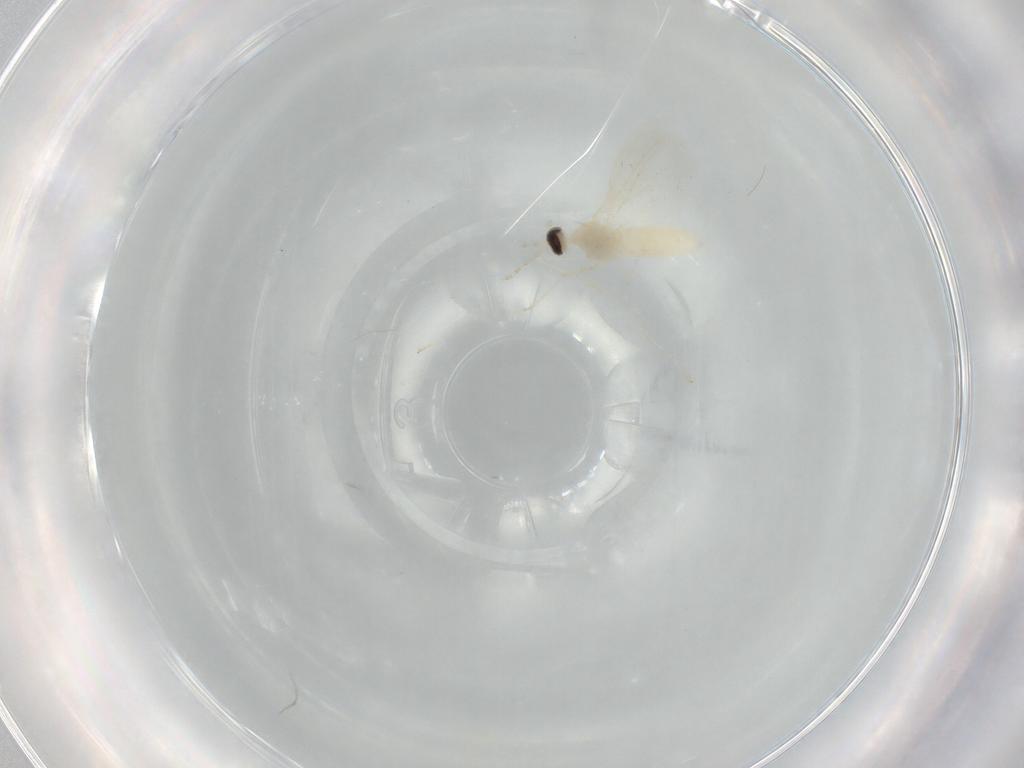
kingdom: Animalia
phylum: Arthropoda
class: Insecta
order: Diptera
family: Cecidomyiidae
